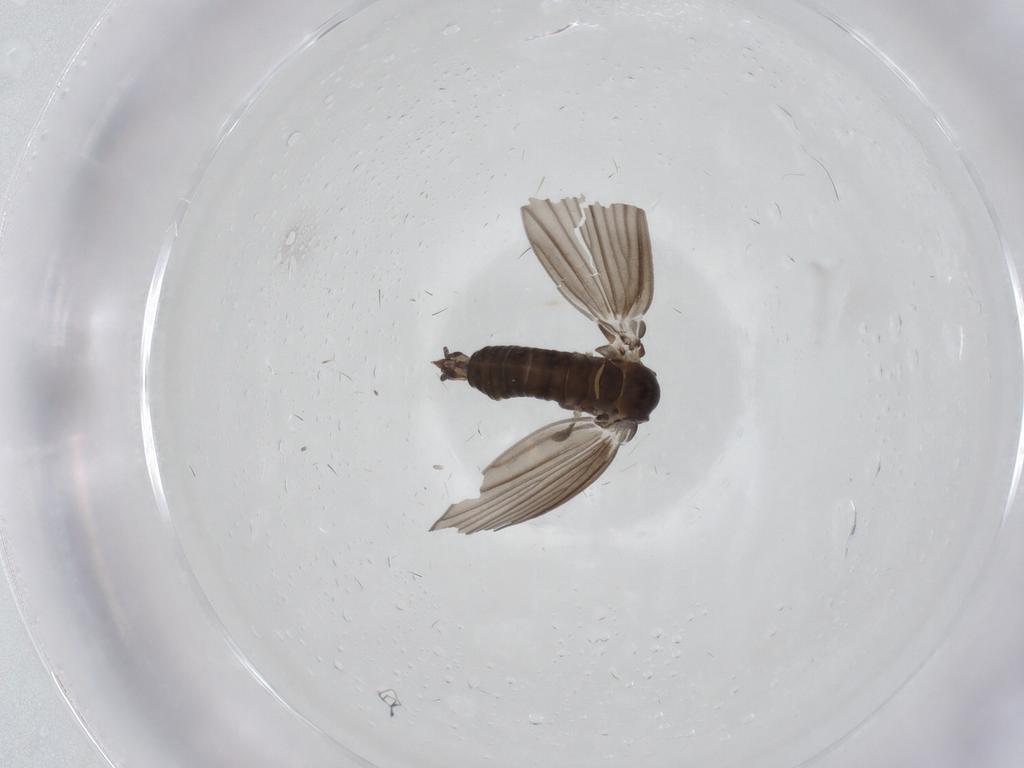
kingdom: Animalia
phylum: Arthropoda
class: Insecta
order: Diptera
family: Psychodidae
